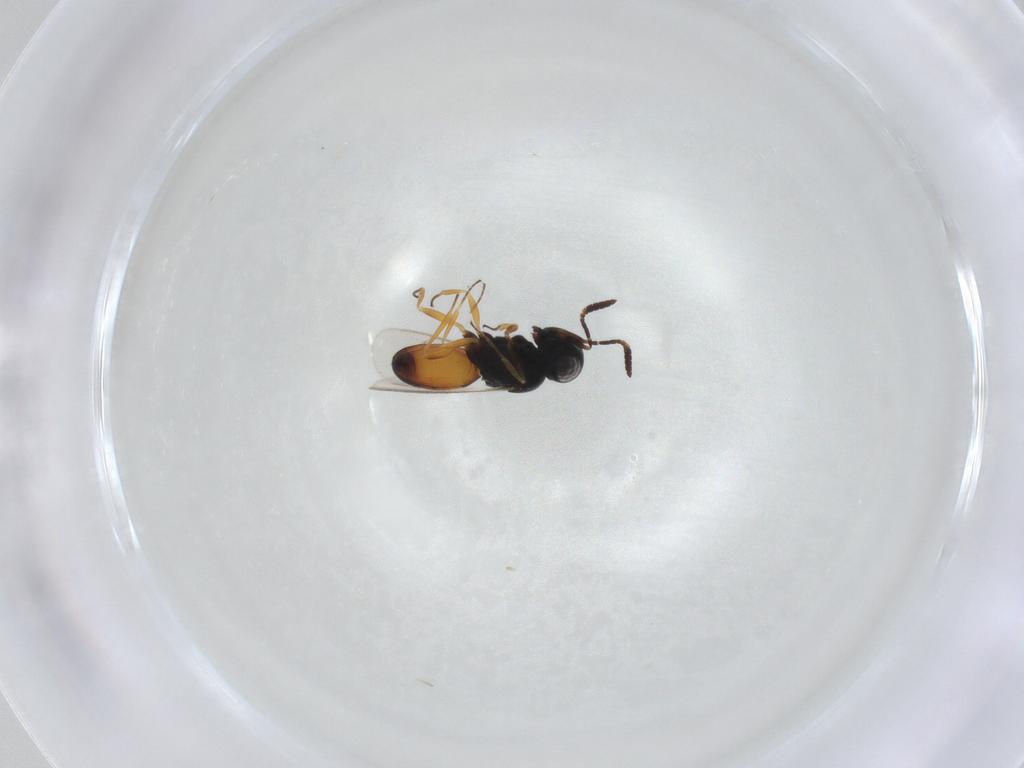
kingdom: Animalia
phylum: Arthropoda
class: Insecta
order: Hymenoptera
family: Scelionidae
